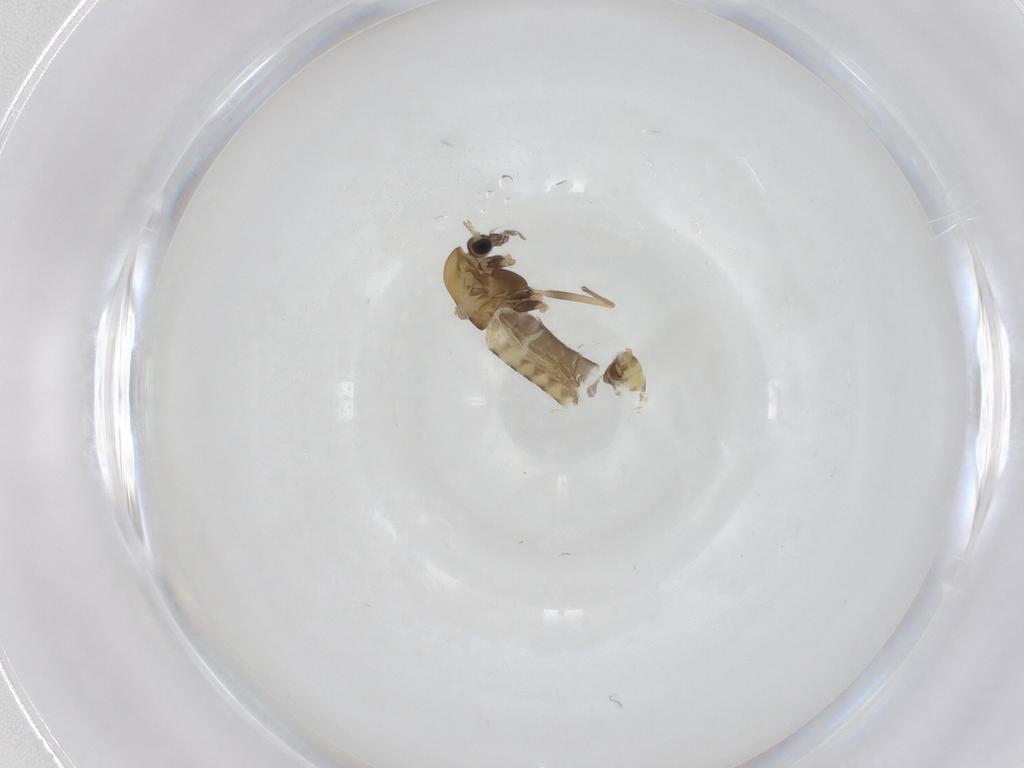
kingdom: Animalia
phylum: Arthropoda
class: Insecta
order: Diptera
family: Chironomidae
